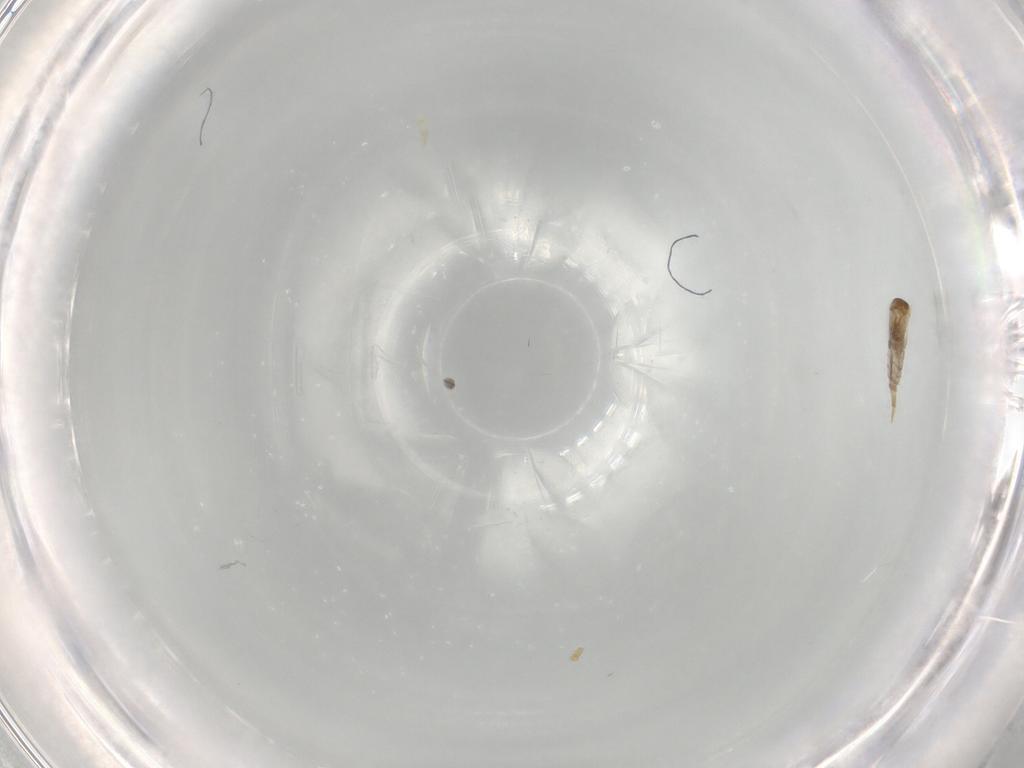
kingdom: Animalia
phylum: Arthropoda
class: Insecta
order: Diptera
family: Cecidomyiidae
